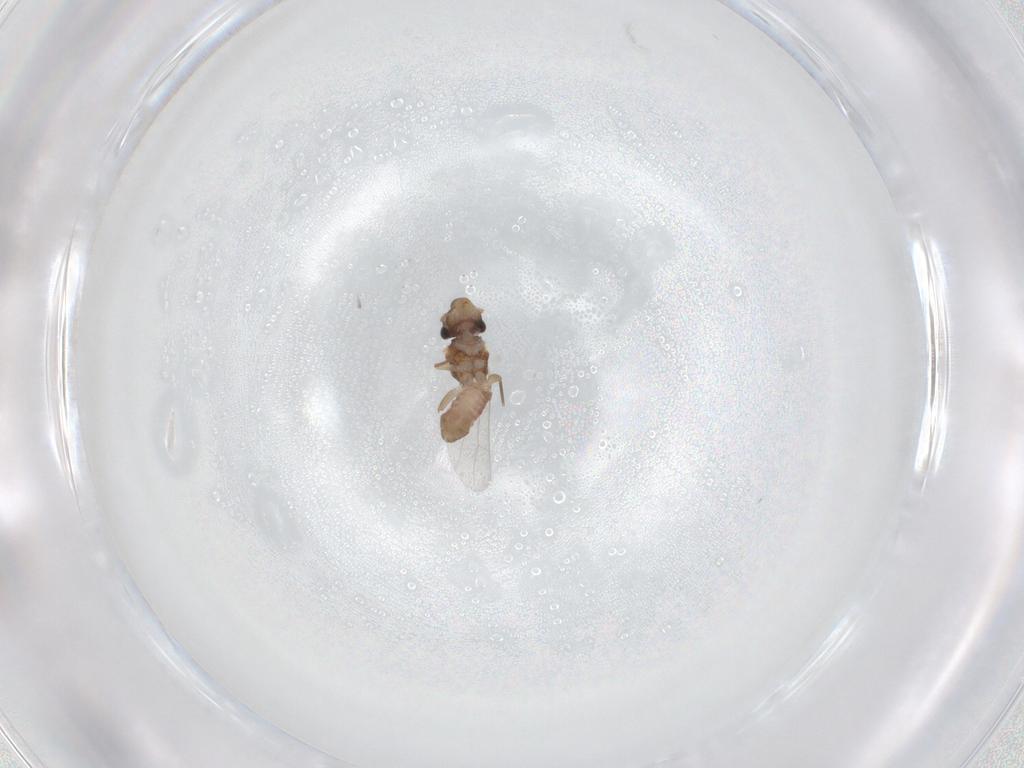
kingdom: Animalia
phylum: Arthropoda
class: Insecta
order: Psocodea
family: Lepidopsocidae
